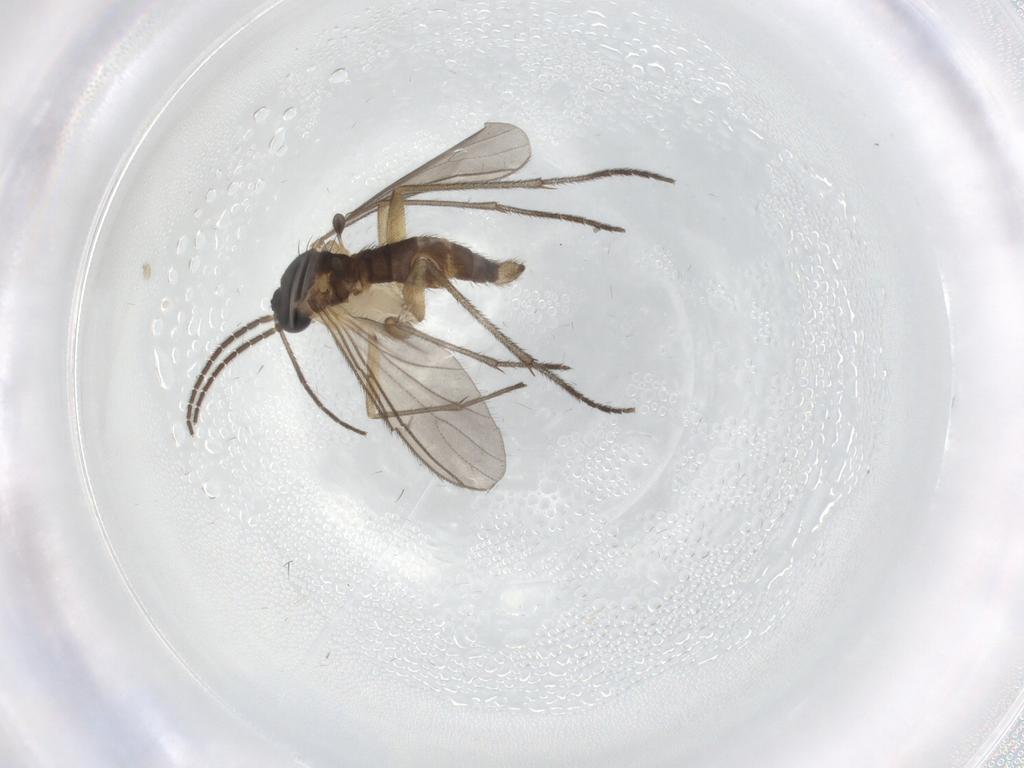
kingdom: Animalia
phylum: Arthropoda
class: Insecta
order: Diptera
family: Sciaridae
